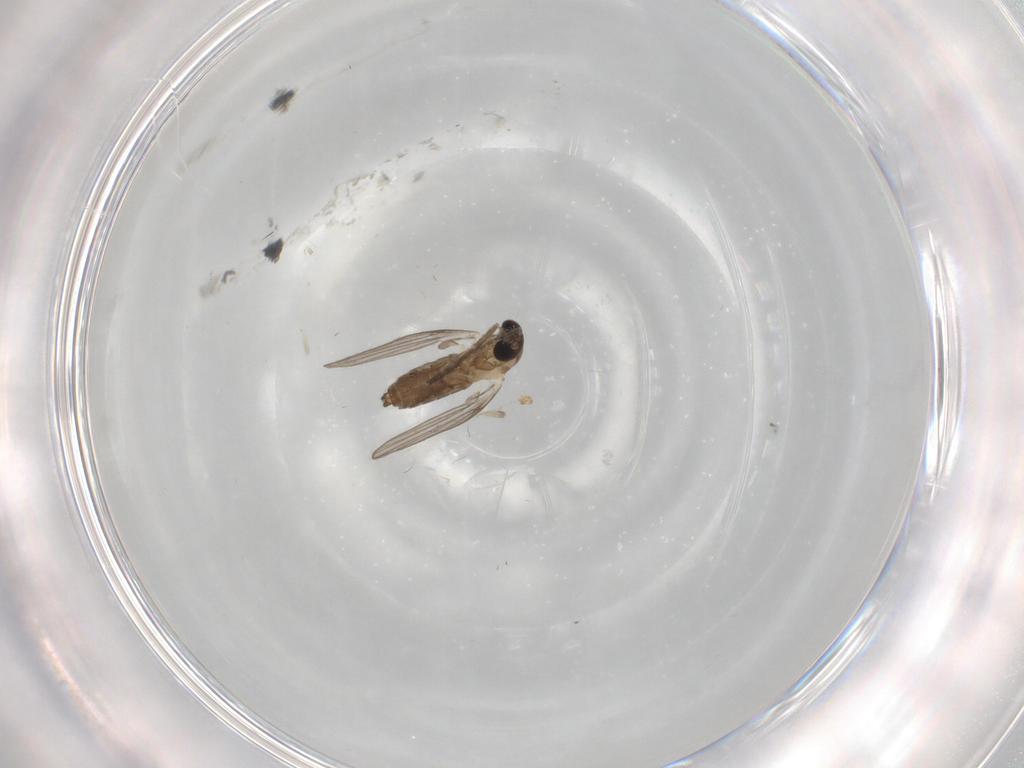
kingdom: Animalia
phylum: Arthropoda
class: Insecta
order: Diptera
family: Psychodidae
